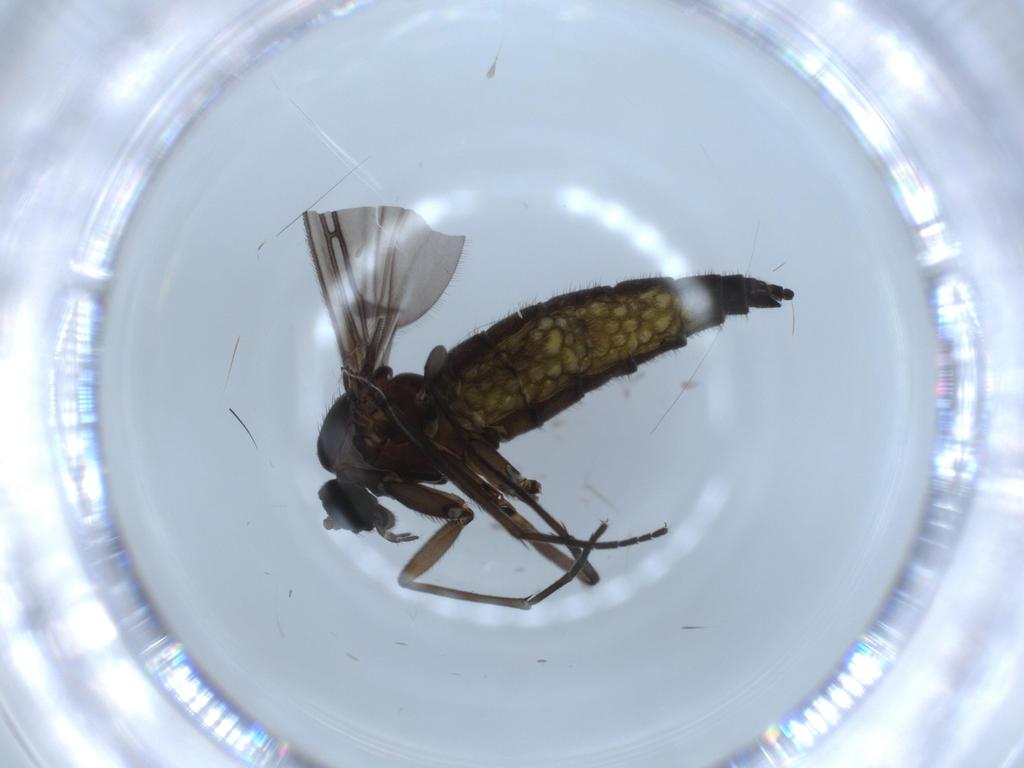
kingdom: Animalia
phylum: Arthropoda
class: Insecta
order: Diptera
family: Sciaridae
